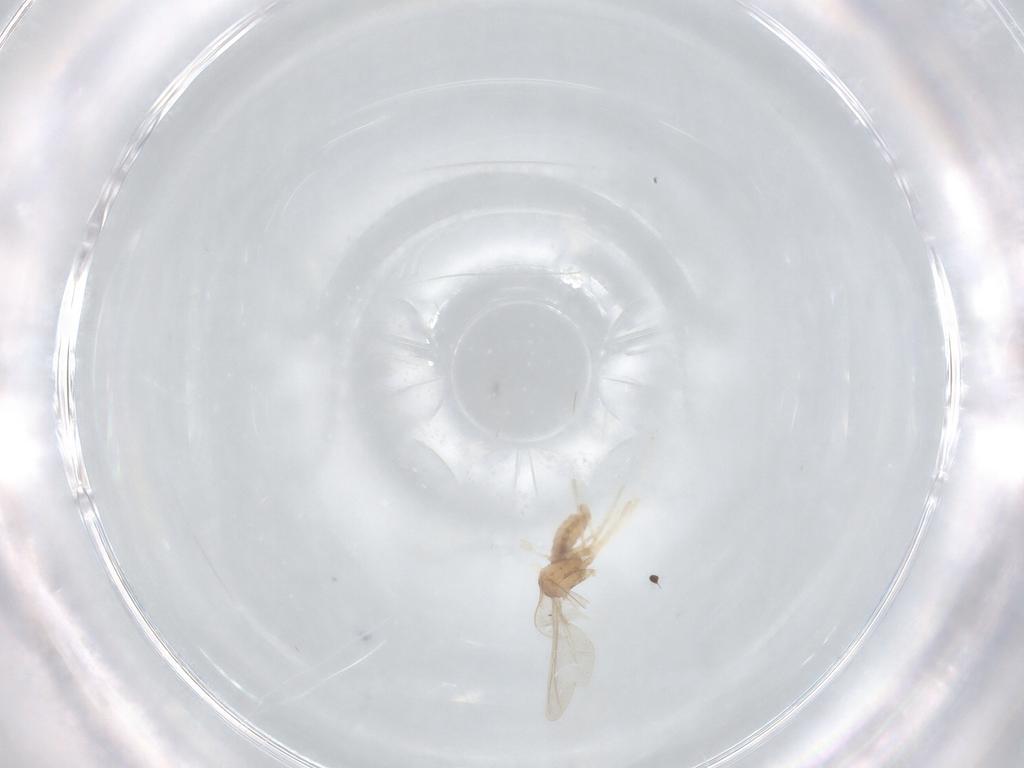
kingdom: Animalia
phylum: Arthropoda
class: Insecta
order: Diptera
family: Cecidomyiidae
